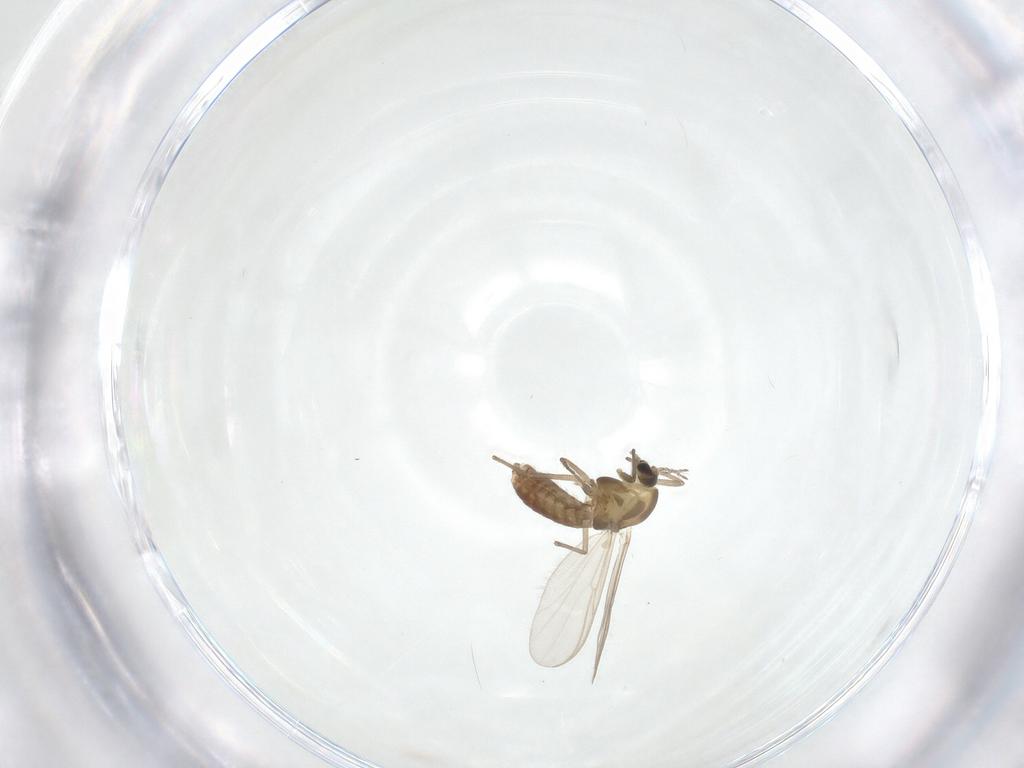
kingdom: Animalia
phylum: Arthropoda
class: Insecta
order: Diptera
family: Chironomidae
